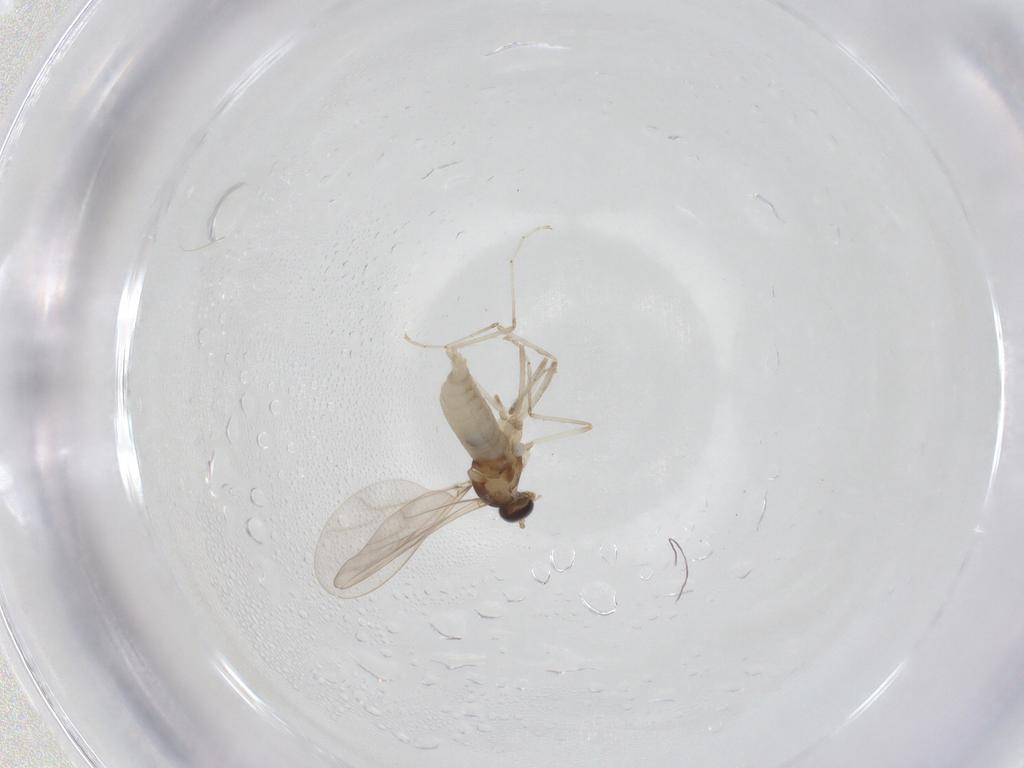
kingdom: Animalia
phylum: Arthropoda
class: Insecta
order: Diptera
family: Cecidomyiidae
